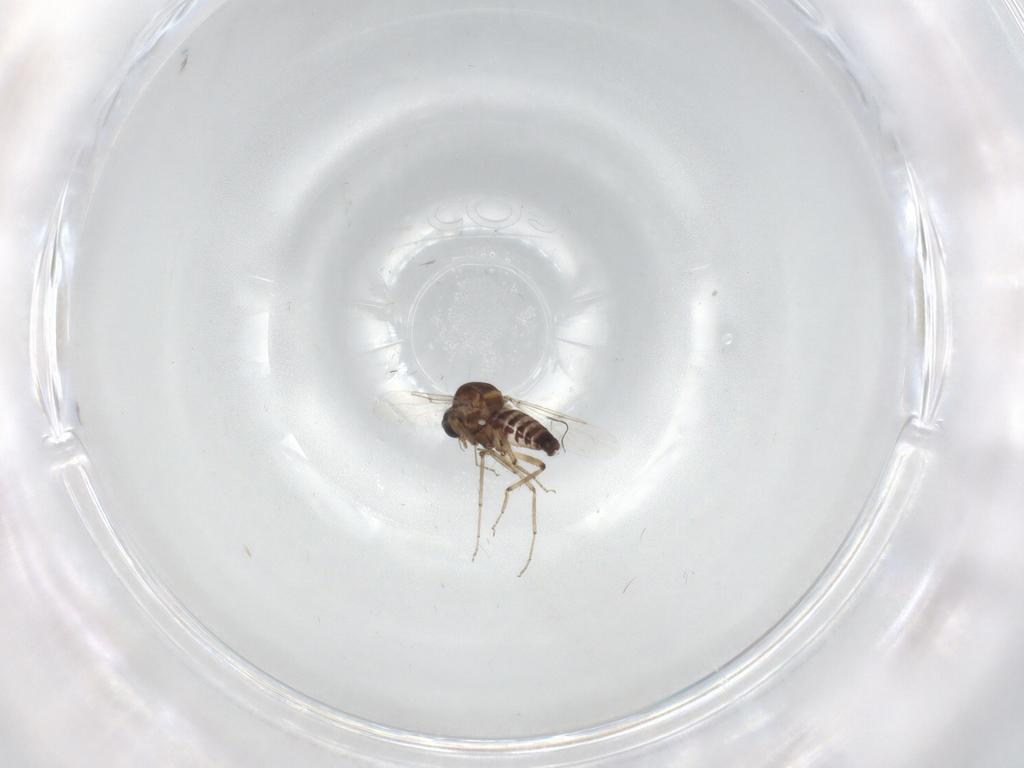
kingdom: Animalia
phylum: Arthropoda
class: Insecta
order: Diptera
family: Ceratopogonidae
